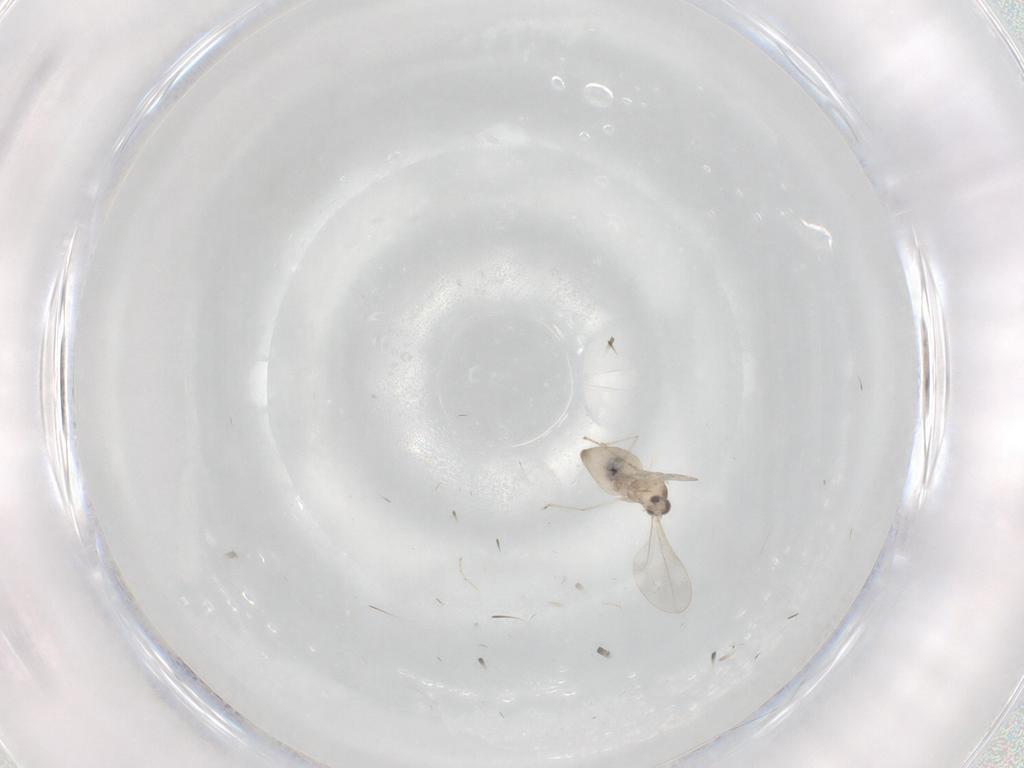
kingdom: Animalia
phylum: Arthropoda
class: Insecta
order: Diptera
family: Cecidomyiidae
